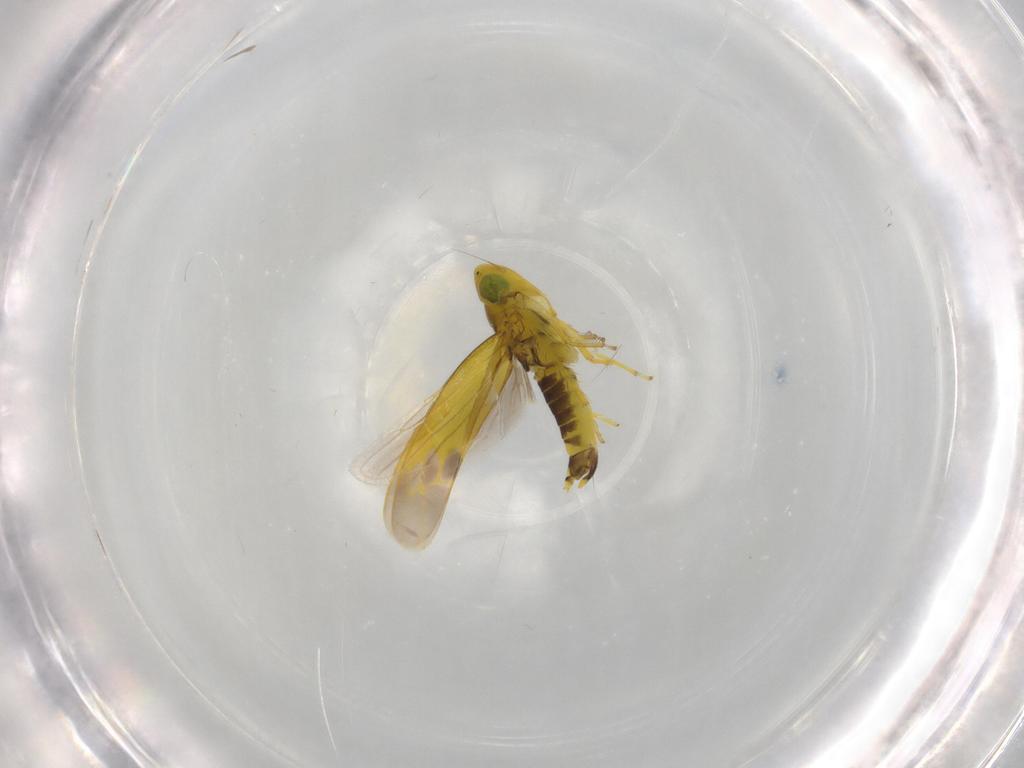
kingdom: Animalia
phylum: Arthropoda
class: Insecta
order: Hemiptera
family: Cicadellidae
